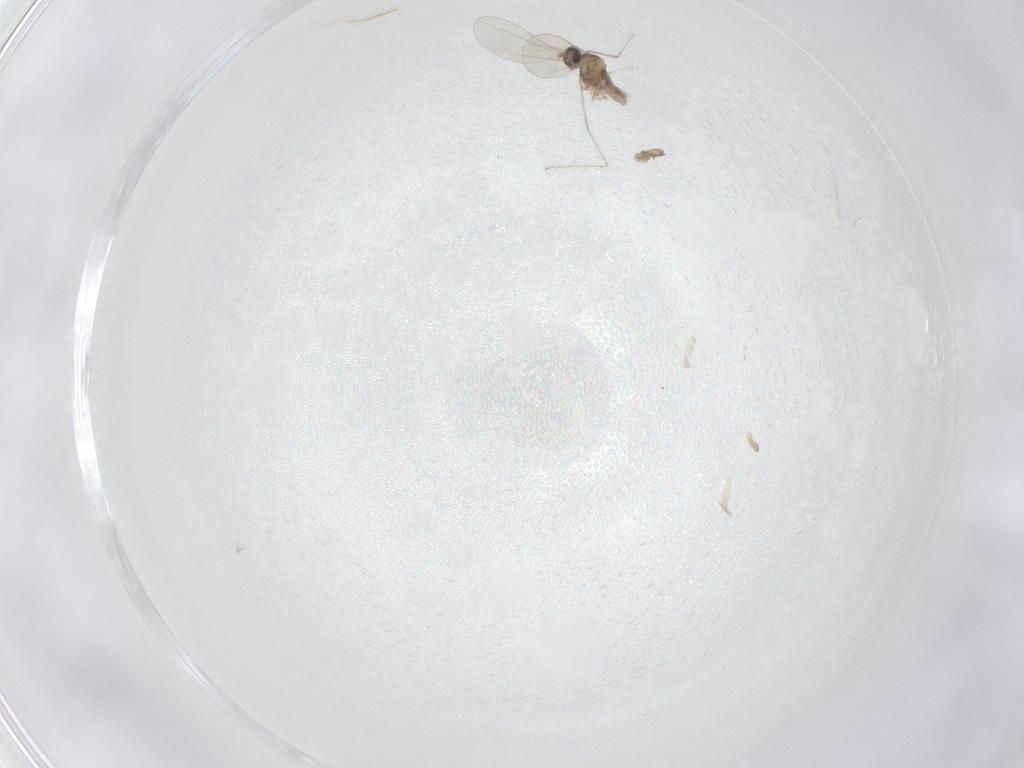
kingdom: Animalia
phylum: Arthropoda
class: Insecta
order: Diptera
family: Cecidomyiidae
